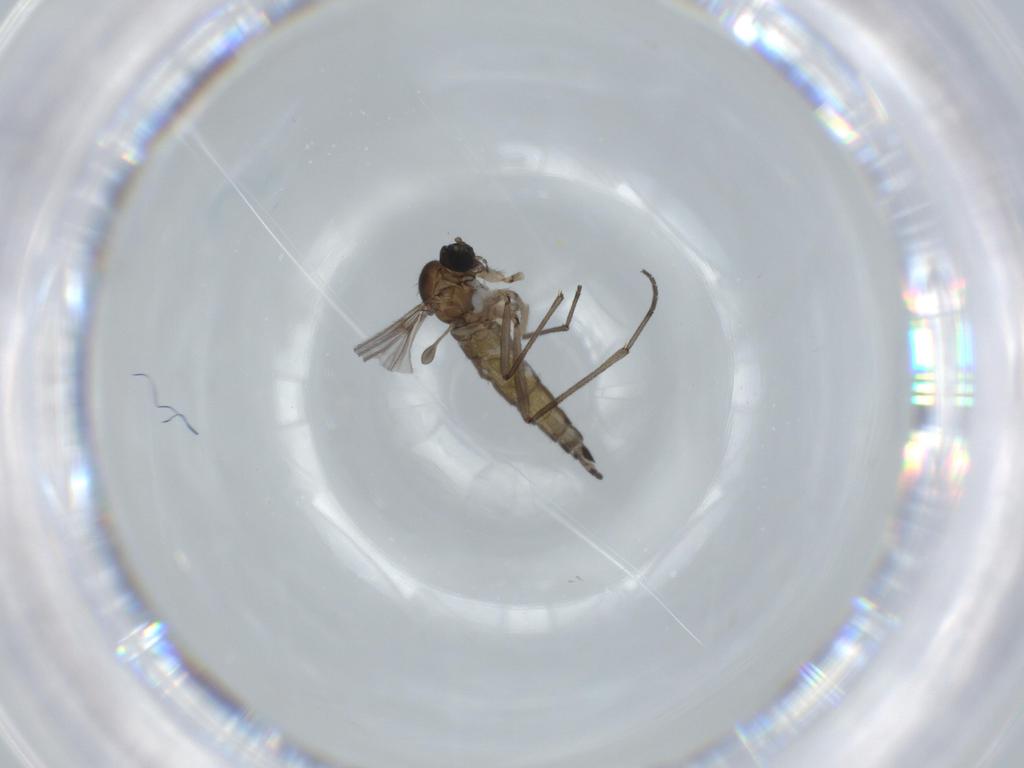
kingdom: Animalia
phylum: Arthropoda
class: Insecta
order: Diptera
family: Sciaridae
